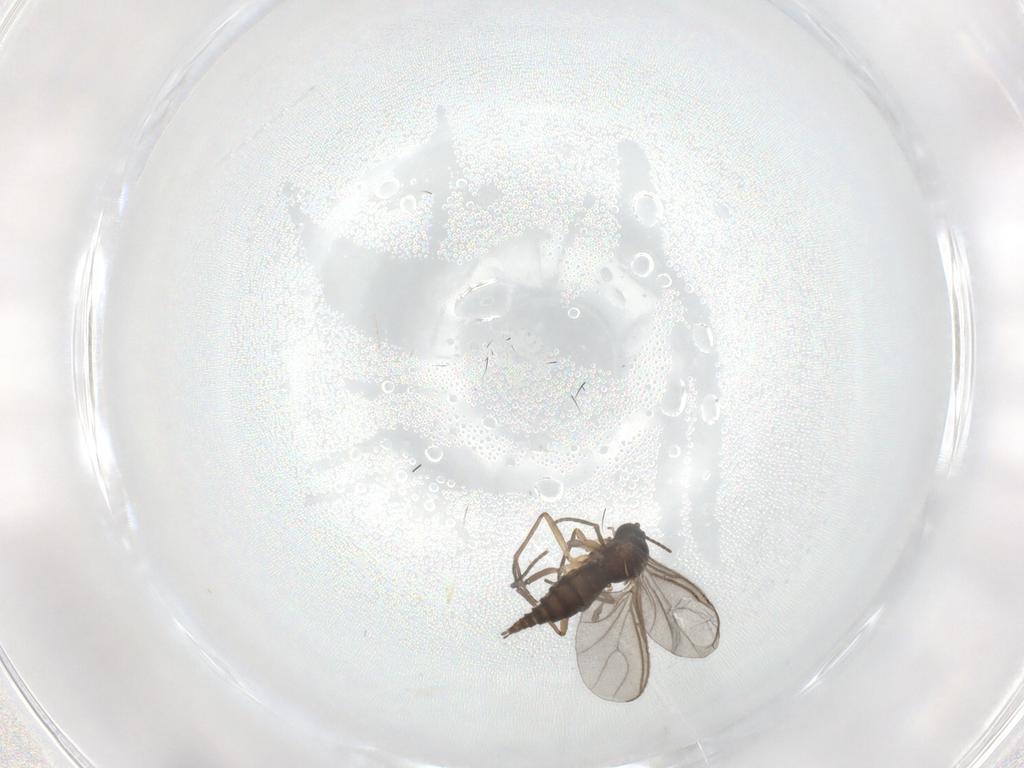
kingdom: Animalia
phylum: Arthropoda
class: Insecta
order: Diptera
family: Sciaridae
